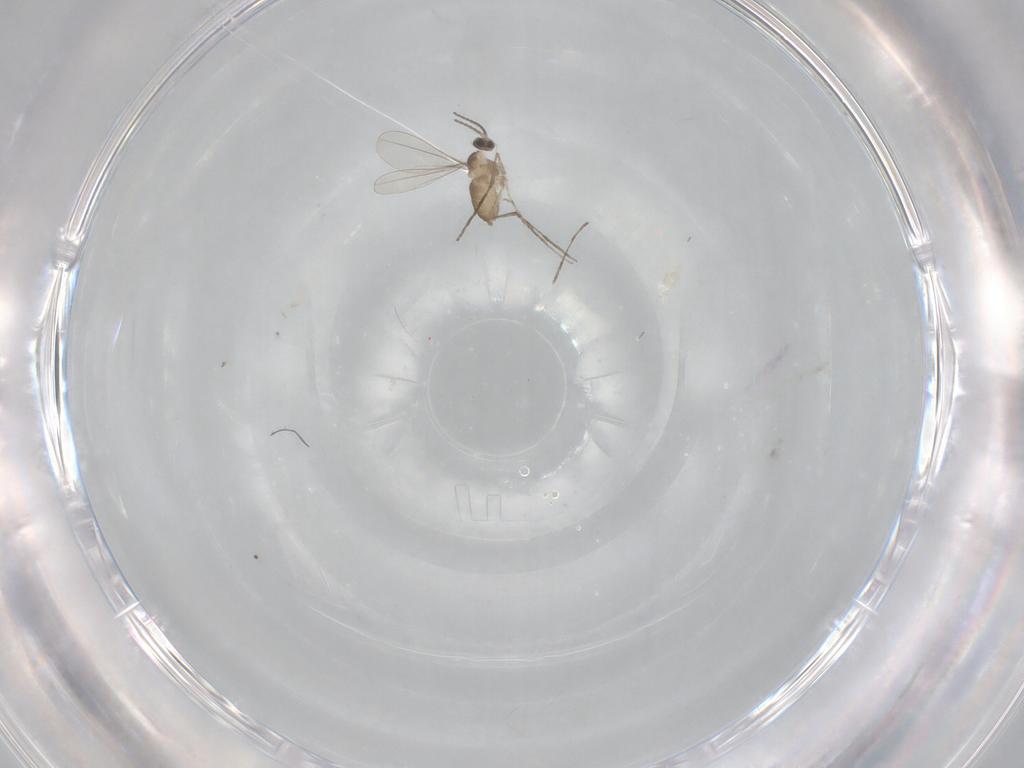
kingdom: Animalia
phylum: Arthropoda
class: Insecta
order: Diptera
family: Cecidomyiidae
